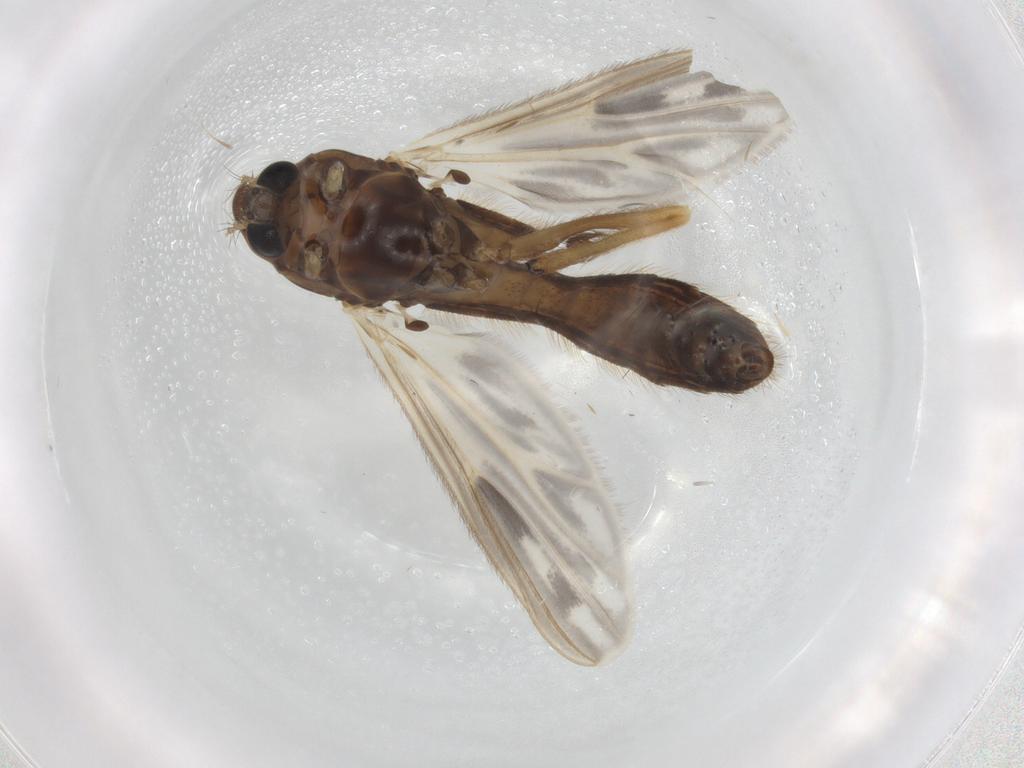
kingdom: Animalia
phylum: Arthropoda
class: Insecta
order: Diptera
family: Chironomidae
